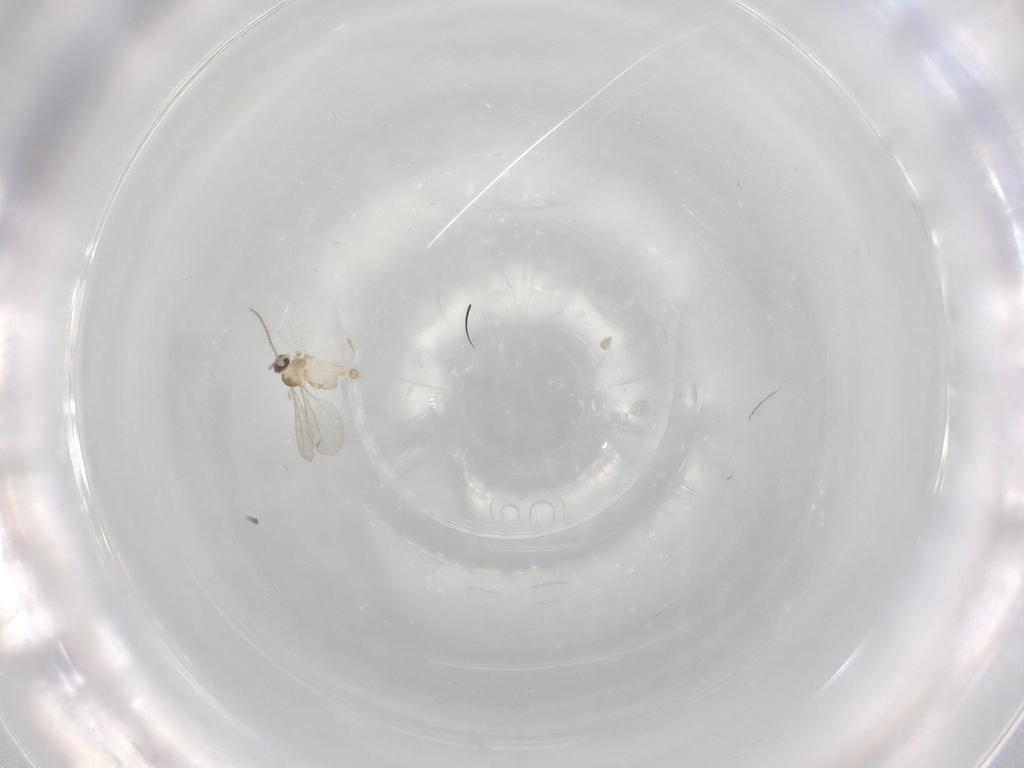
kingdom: Animalia
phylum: Arthropoda
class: Insecta
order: Diptera
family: Cecidomyiidae
